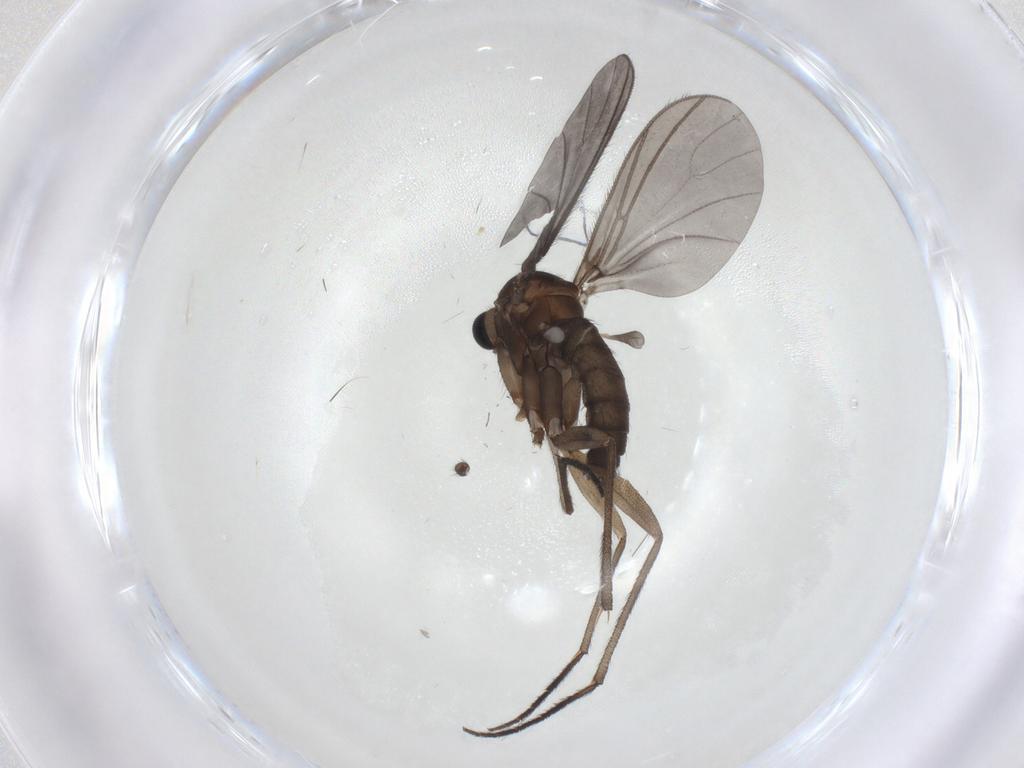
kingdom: Animalia
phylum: Arthropoda
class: Insecta
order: Diptera
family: Sciaridae
